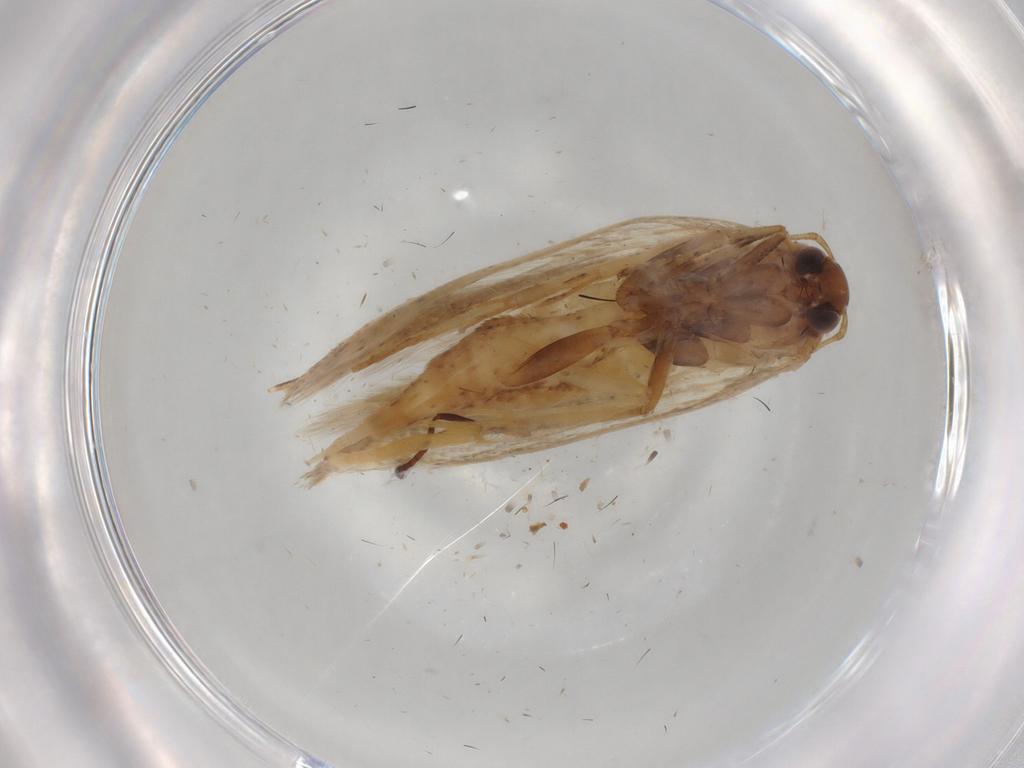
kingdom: Animalia
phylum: Arthropoda
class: Insecta
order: Lepidoptera
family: Gelechiidae
